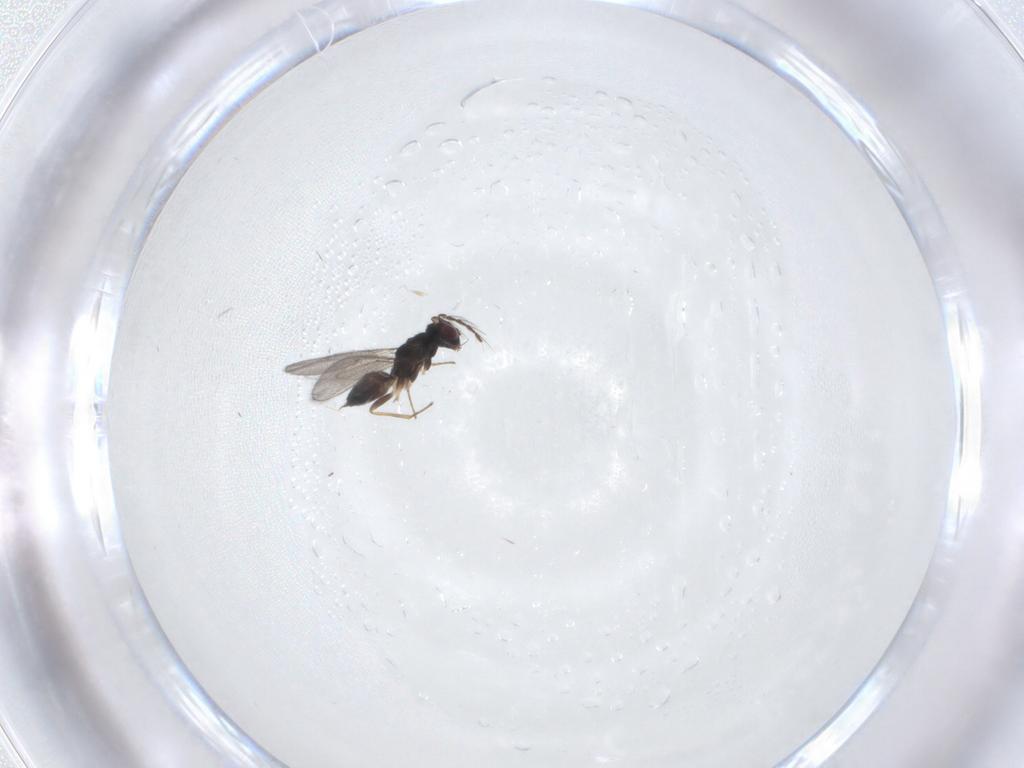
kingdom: Animalia
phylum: Arthropoda
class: Insecta
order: Hymenoptera
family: Eulophidae
